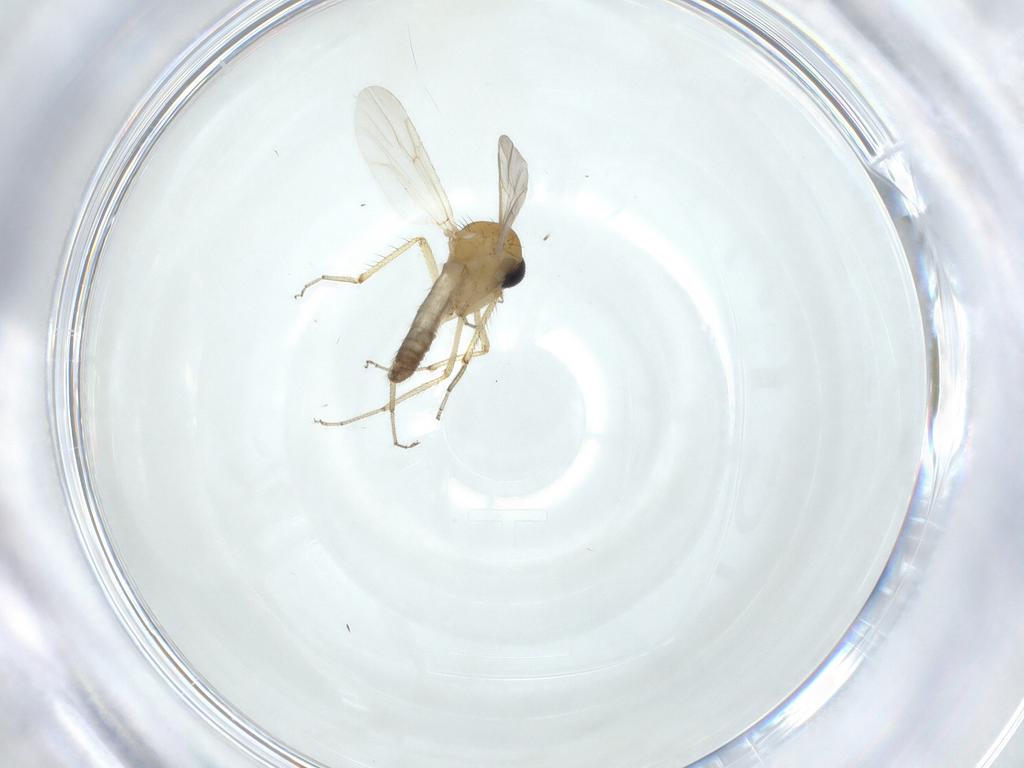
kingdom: Animalia
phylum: Arthropoda
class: Insecta
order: Diptera
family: Ceratopogonidae
